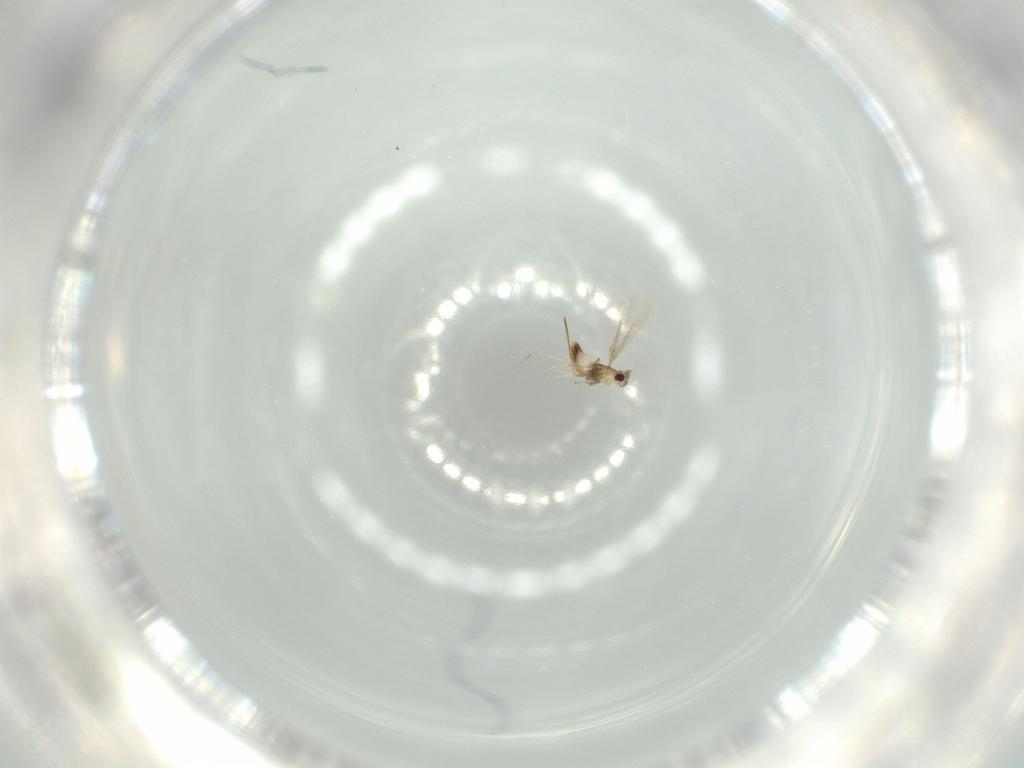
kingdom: Animalia
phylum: Arthropoda
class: Insecta
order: Hymenoptera
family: Mymaridae
